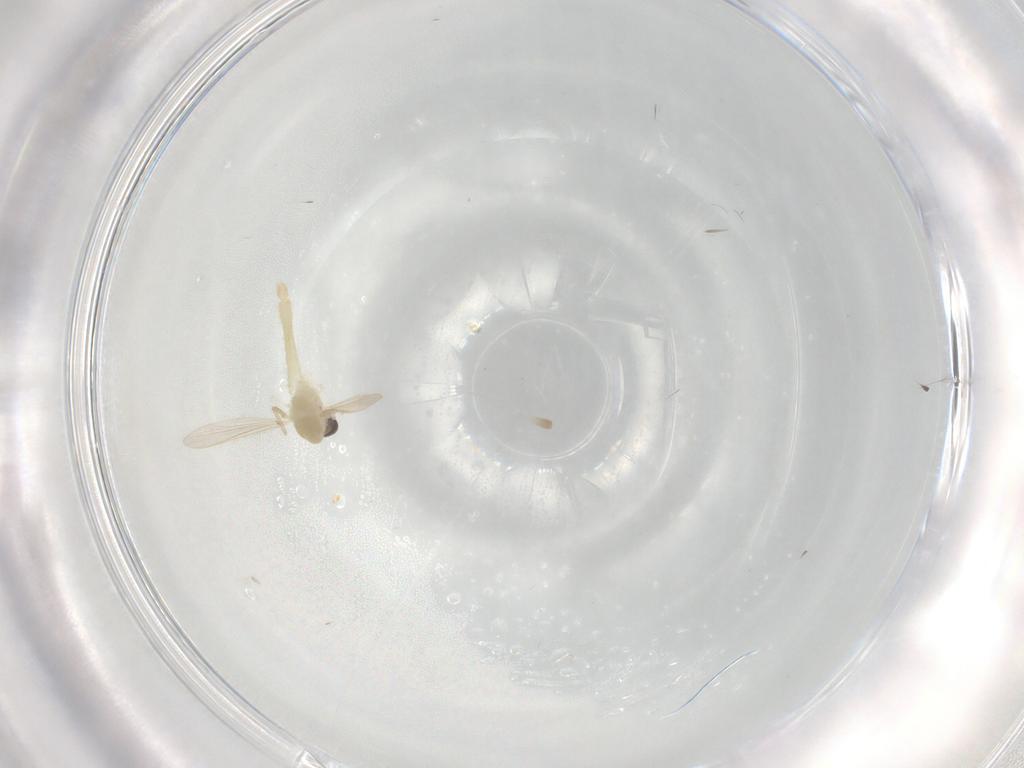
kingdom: Animalia
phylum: Arthropoda
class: Insecta
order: Diptera
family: Chironomidae
